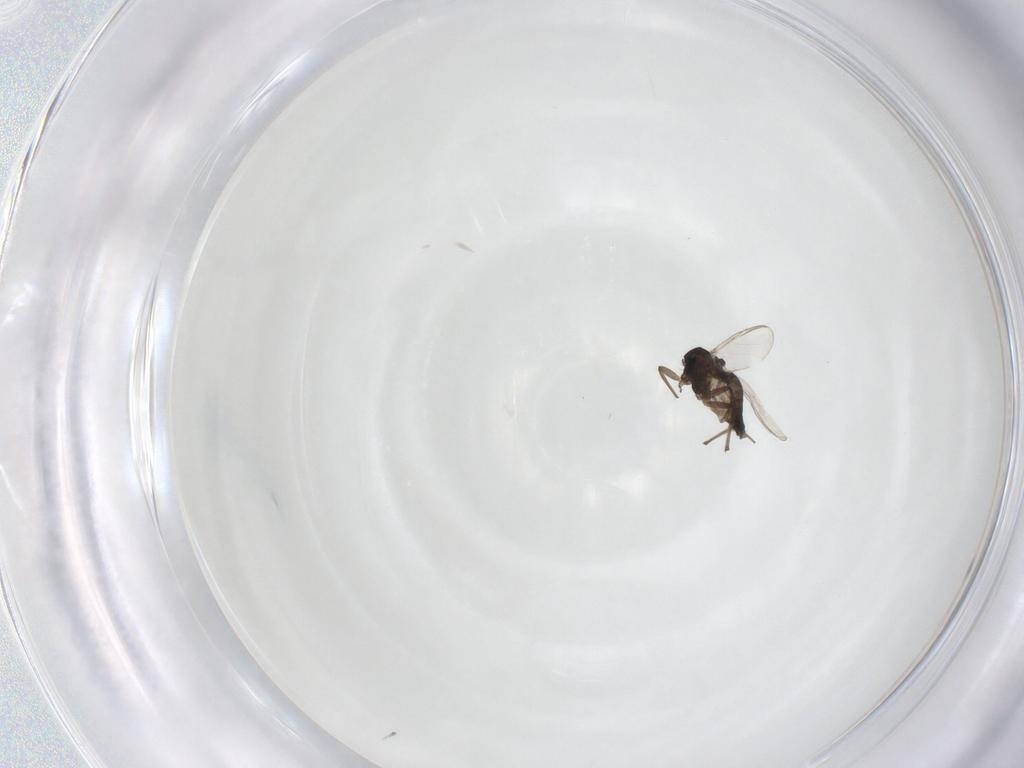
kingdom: Animalia
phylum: Arthropoda
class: Insecta
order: Diptera
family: Chironomidae
